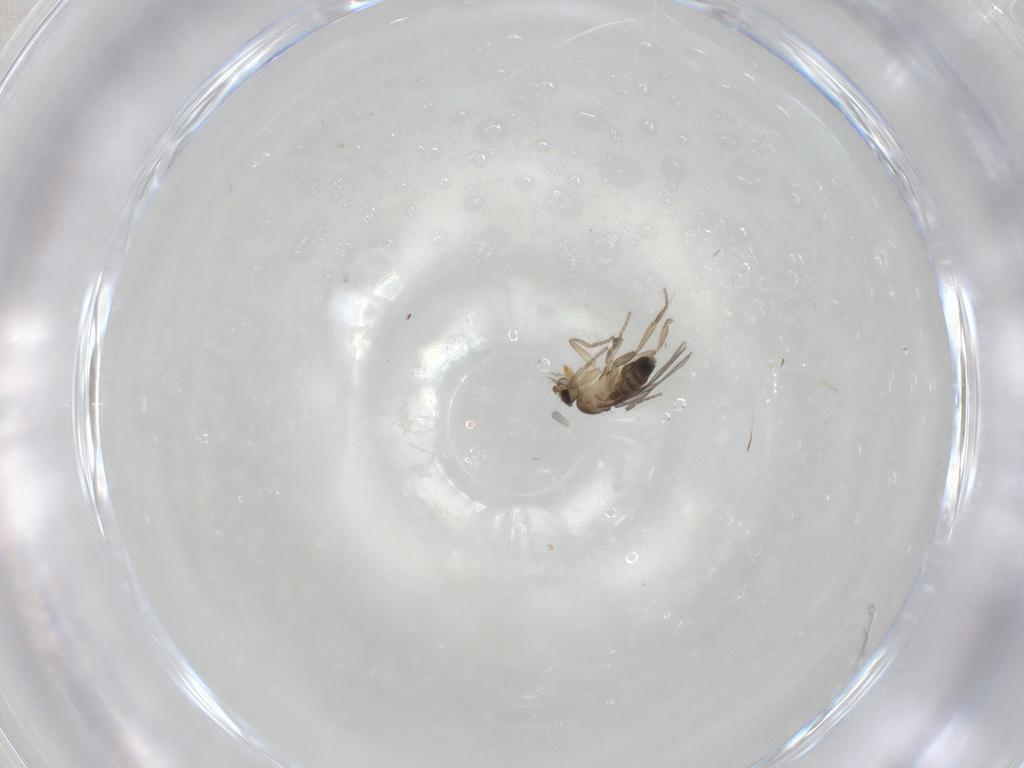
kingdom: Animalia
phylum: Arthropoda
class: Insecta
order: Diptera
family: Phoridae
